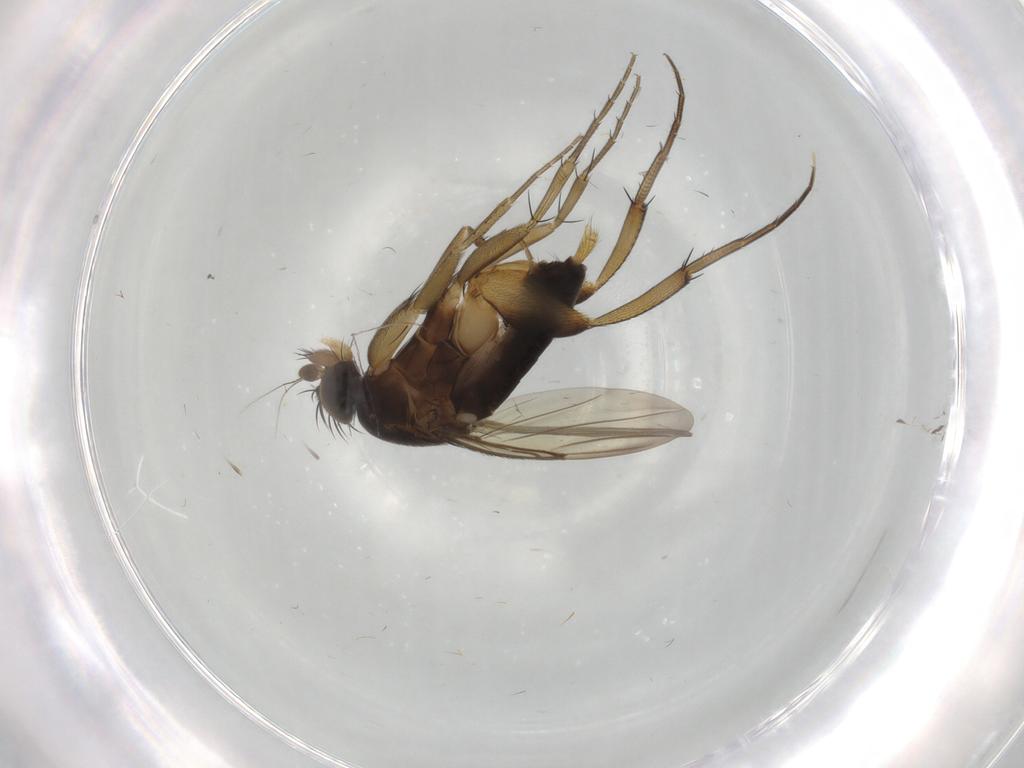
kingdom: Animalia
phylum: Arthropoda
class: Insecta
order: Diptera
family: Phoridae
